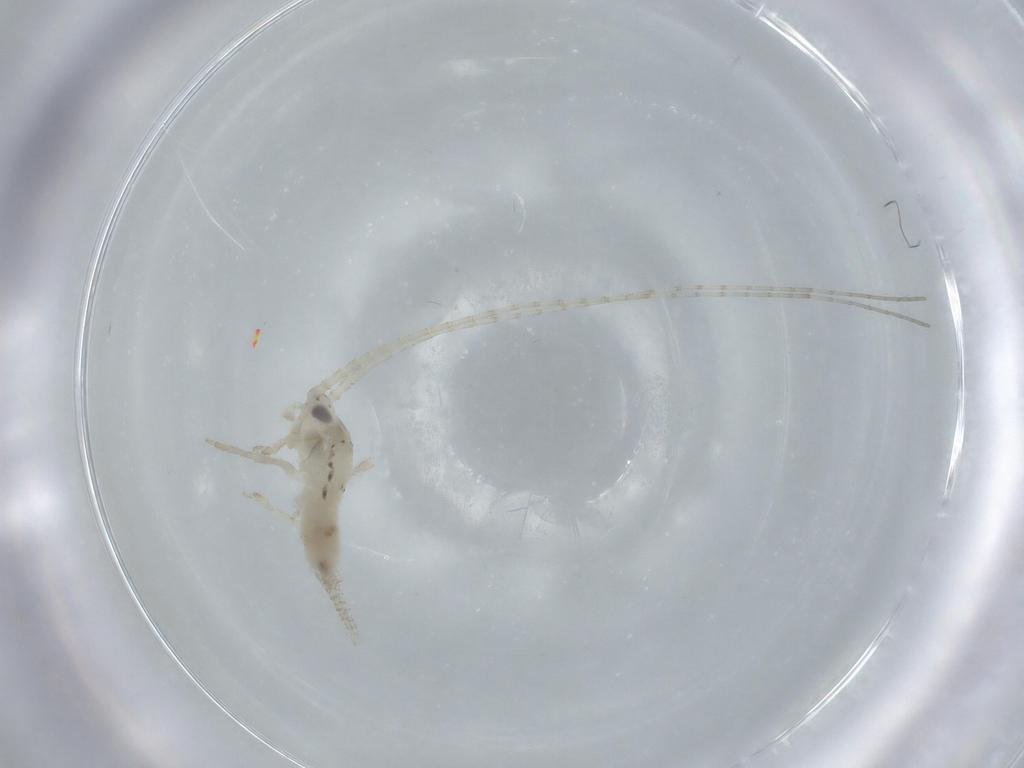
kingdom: Animalia
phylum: Arthropoda
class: Insecta
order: Orthoptera
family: Trigonidiidae
